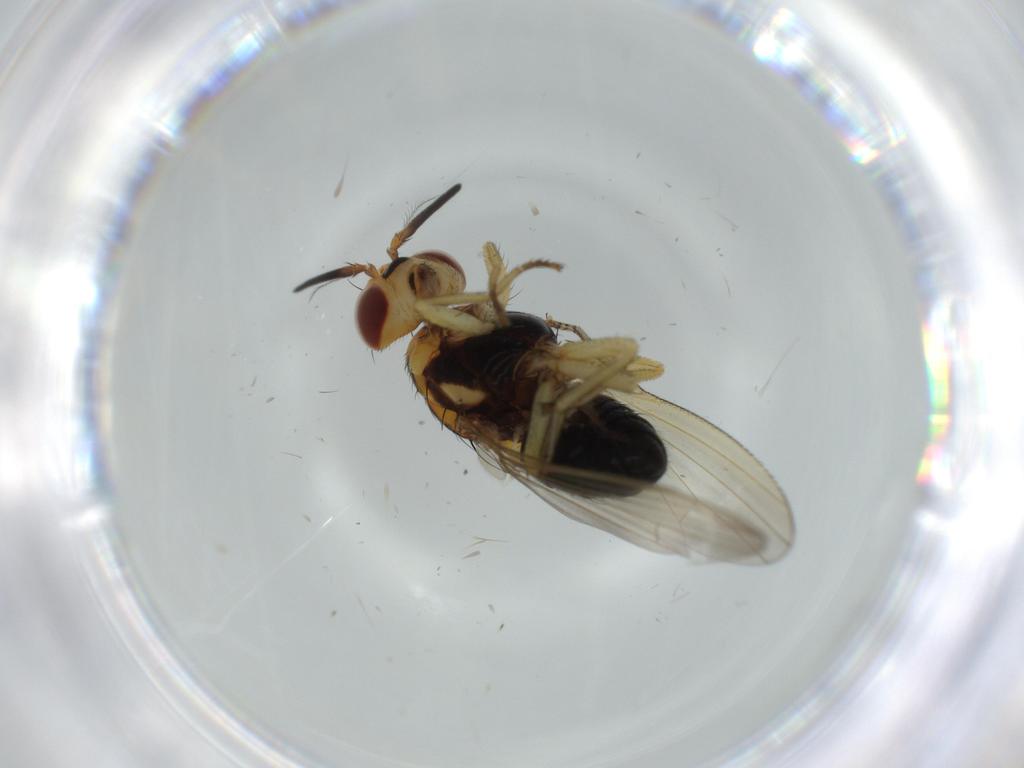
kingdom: Animalia
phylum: Arthropoda
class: Insecta
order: Diptera
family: Lauxaniidae
